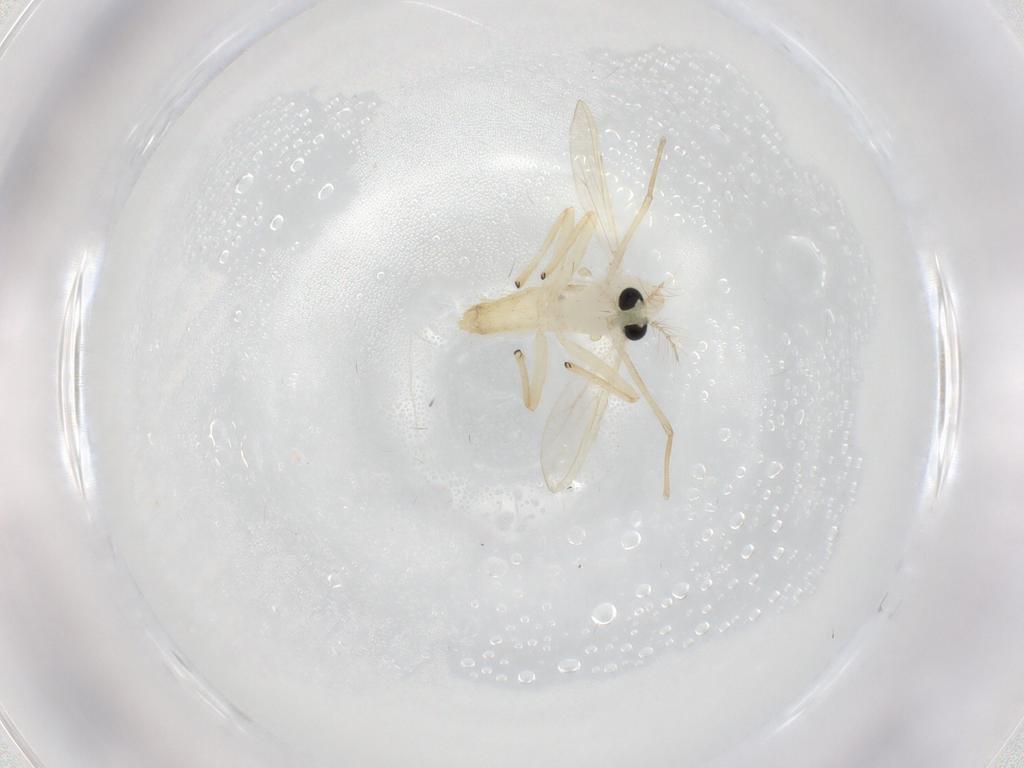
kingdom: Animalia
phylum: Arthropoda
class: Insecta
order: Diptera
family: Chironomidae
